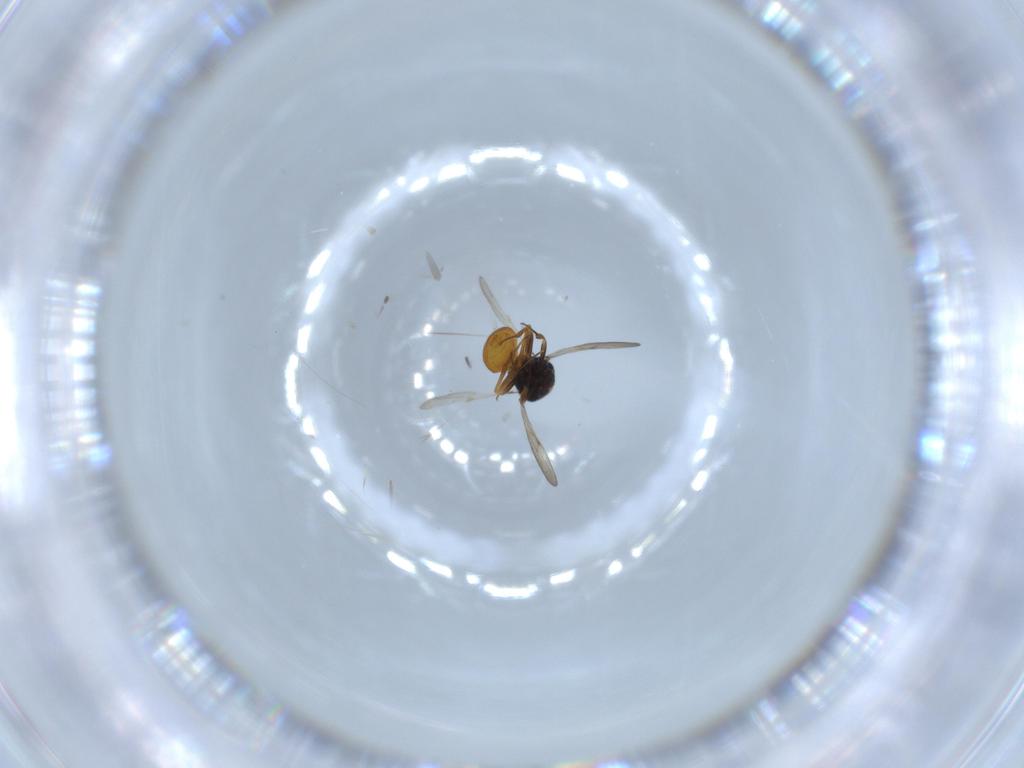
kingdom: Animalia
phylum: Arthropoda
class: Insecta
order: Hymenoptera
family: Scelionidae
